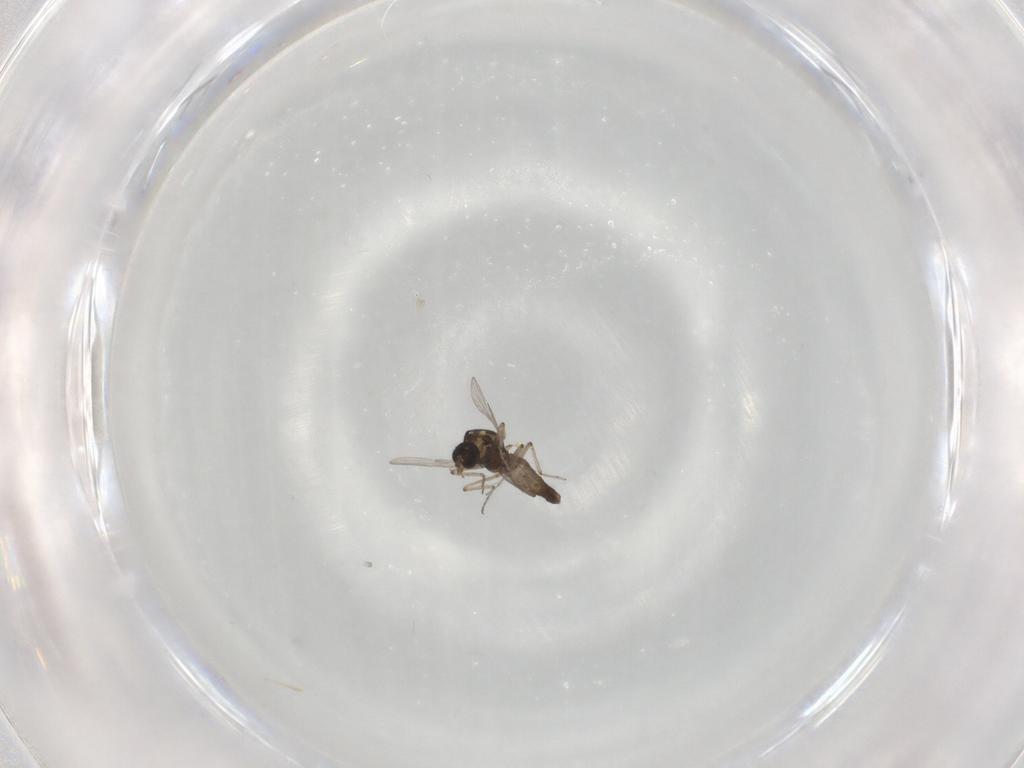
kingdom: Animalia
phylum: Arthropoda
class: Insecta
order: Diptera
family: Ceratopogonidae
